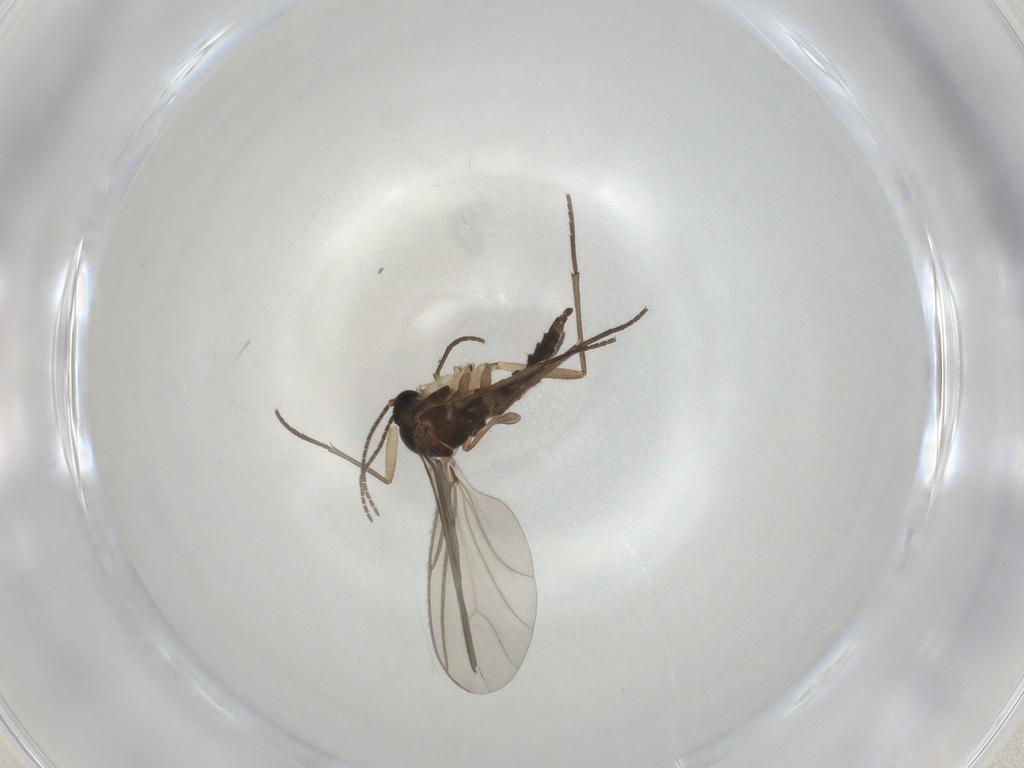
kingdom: Animalia
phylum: Arthropoda
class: Insecta
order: Diptera
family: Sciaridae
